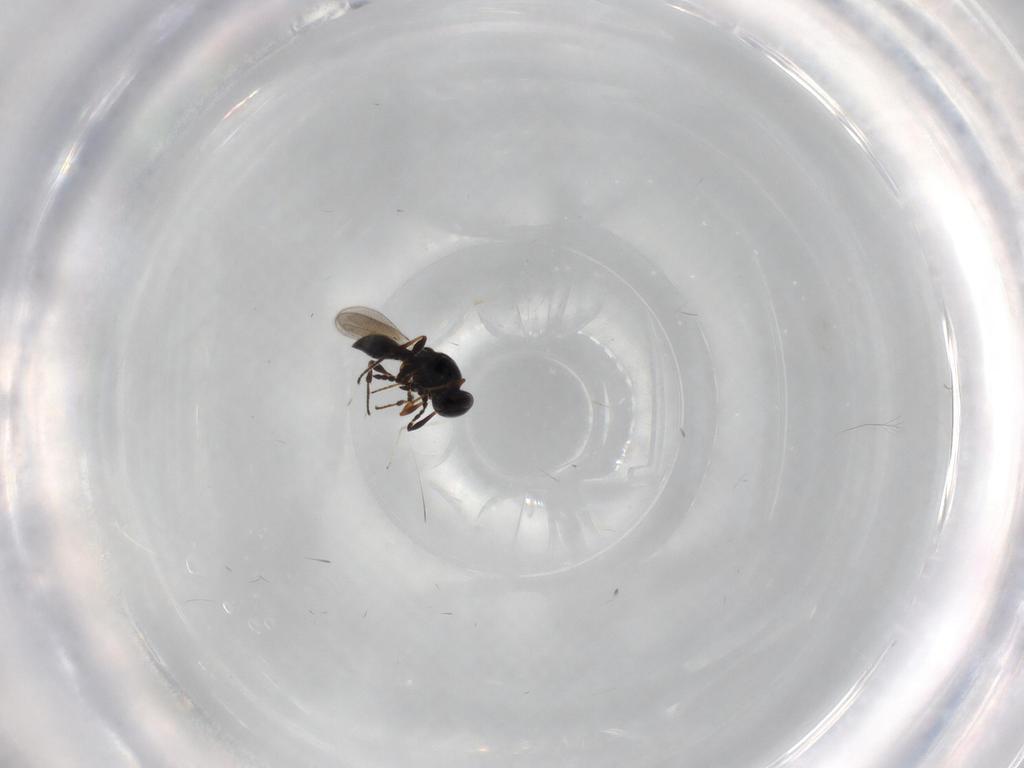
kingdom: Animalia
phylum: Arthropoda
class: Insecta
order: Hymenoptera
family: Platygastridae
